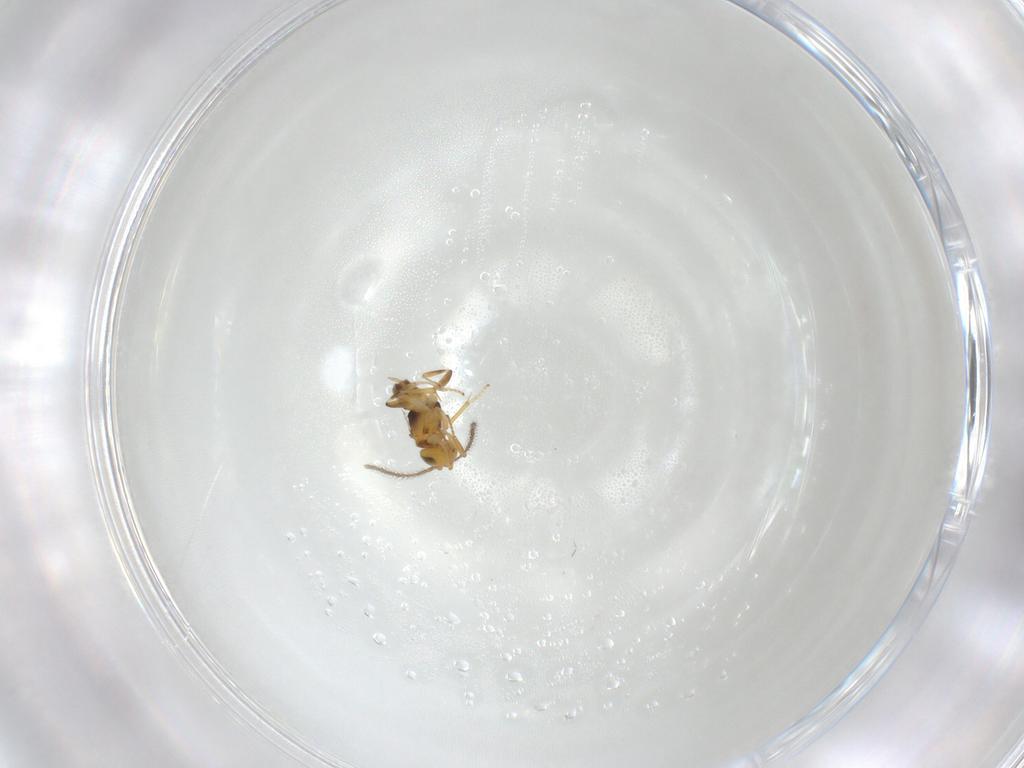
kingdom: Animalia
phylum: Arthropoda
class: Insecta
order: Hymenoptera
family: Encyrtidae
